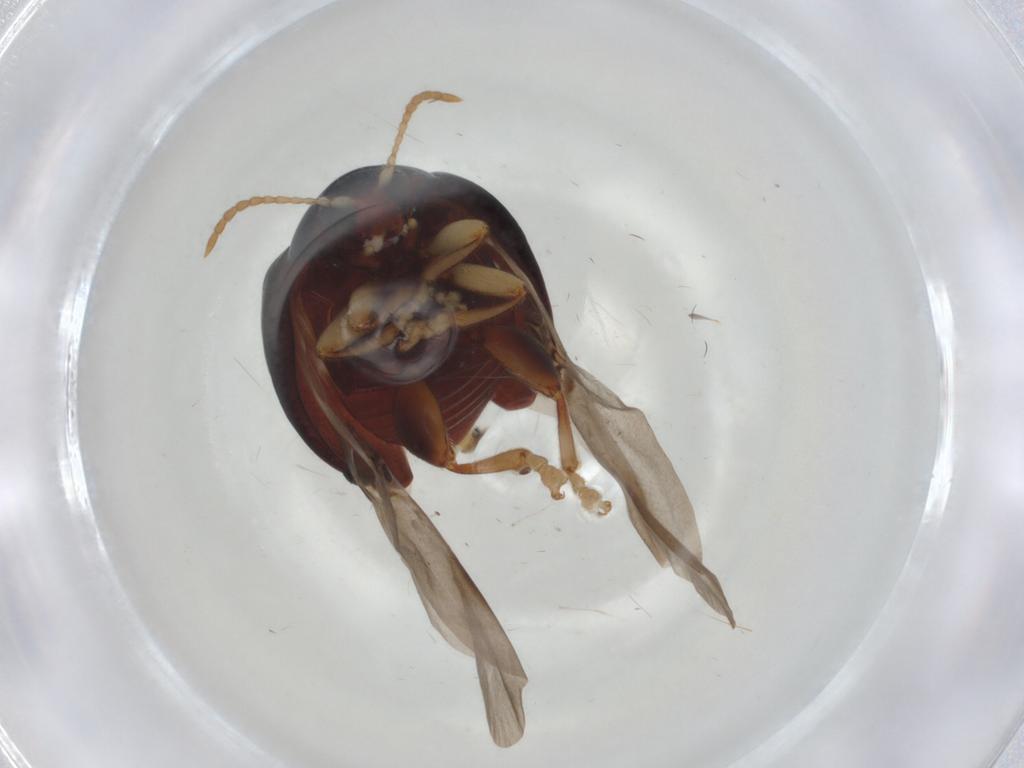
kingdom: Animalia
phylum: Arthropoda
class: Insecta
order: Coleoptera
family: Chrysomelidae
